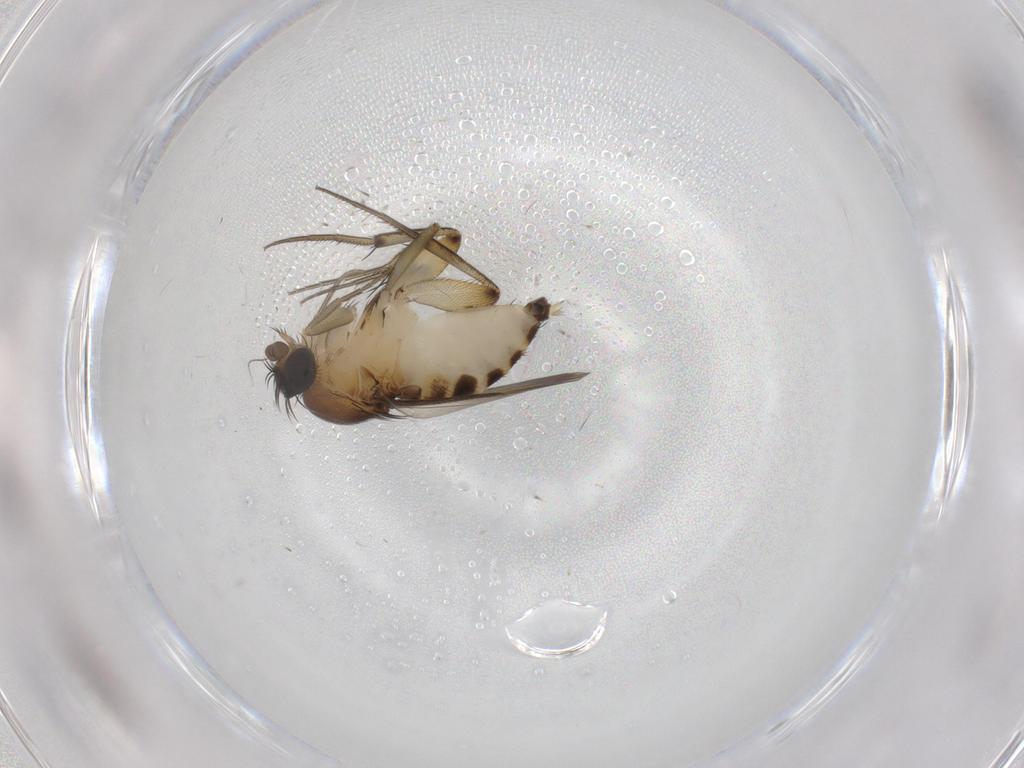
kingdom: Animalia
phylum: Arthropoda
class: Insecta
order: Diptera
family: Phoridae
